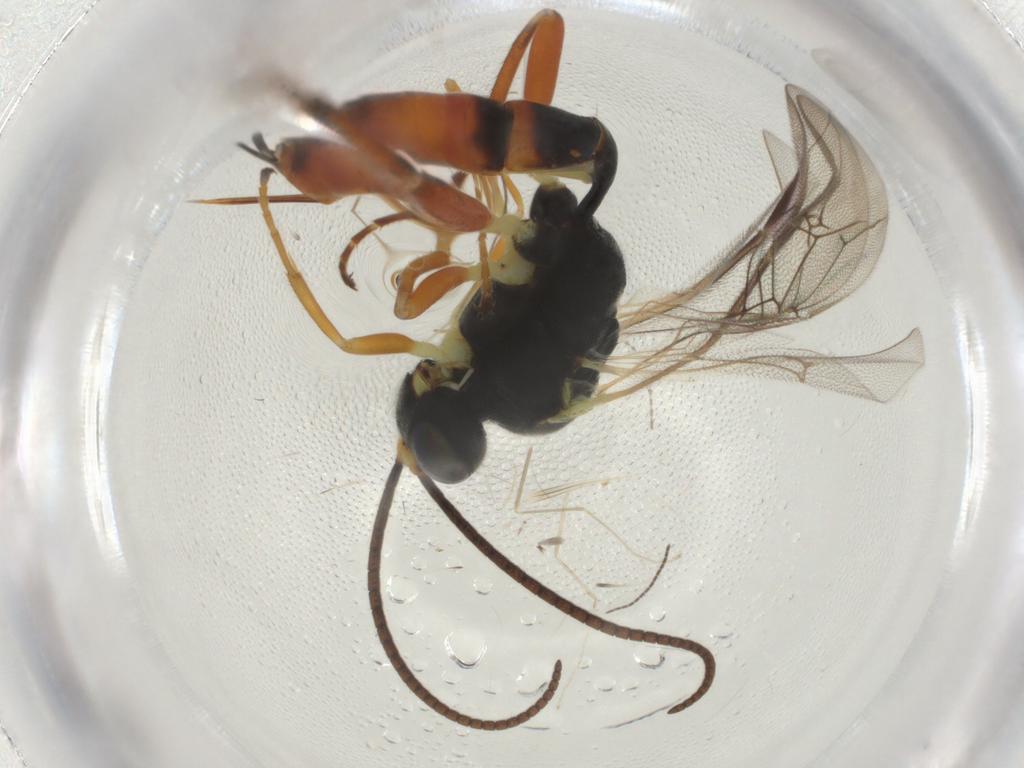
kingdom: Animalia
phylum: Arthropoda
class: Insecta
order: Hymenoptera
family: Ichneumonidae
